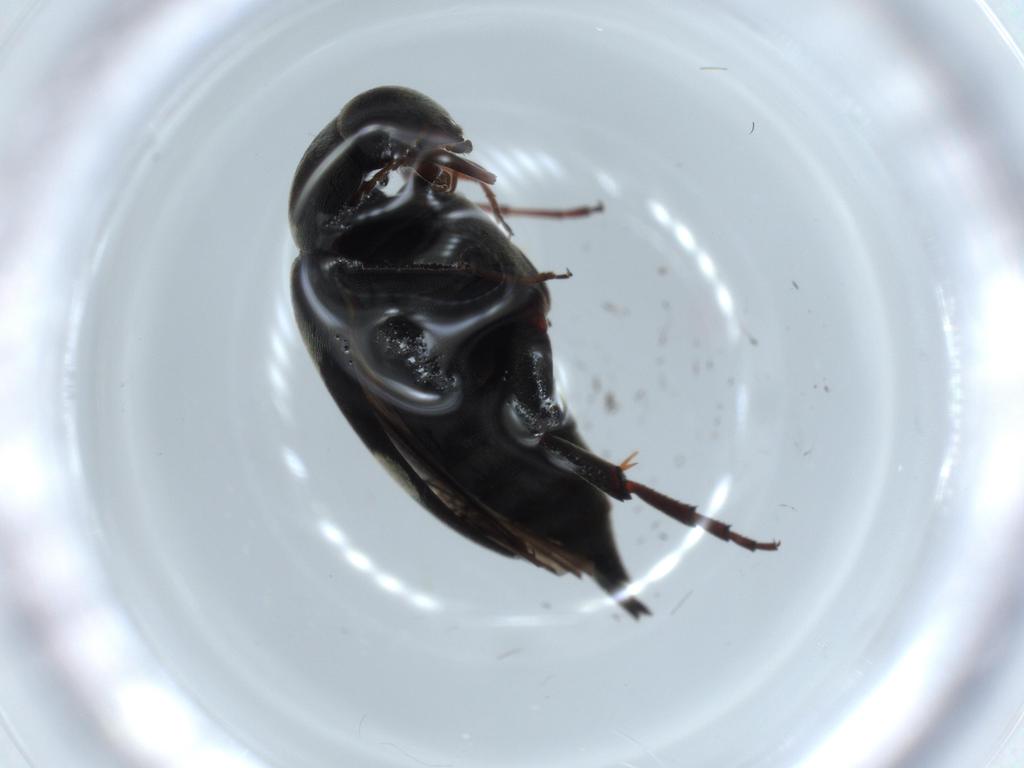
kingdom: Animalia
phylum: Arthropoda
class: Insecta
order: Coleoptera
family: Mordellidae
